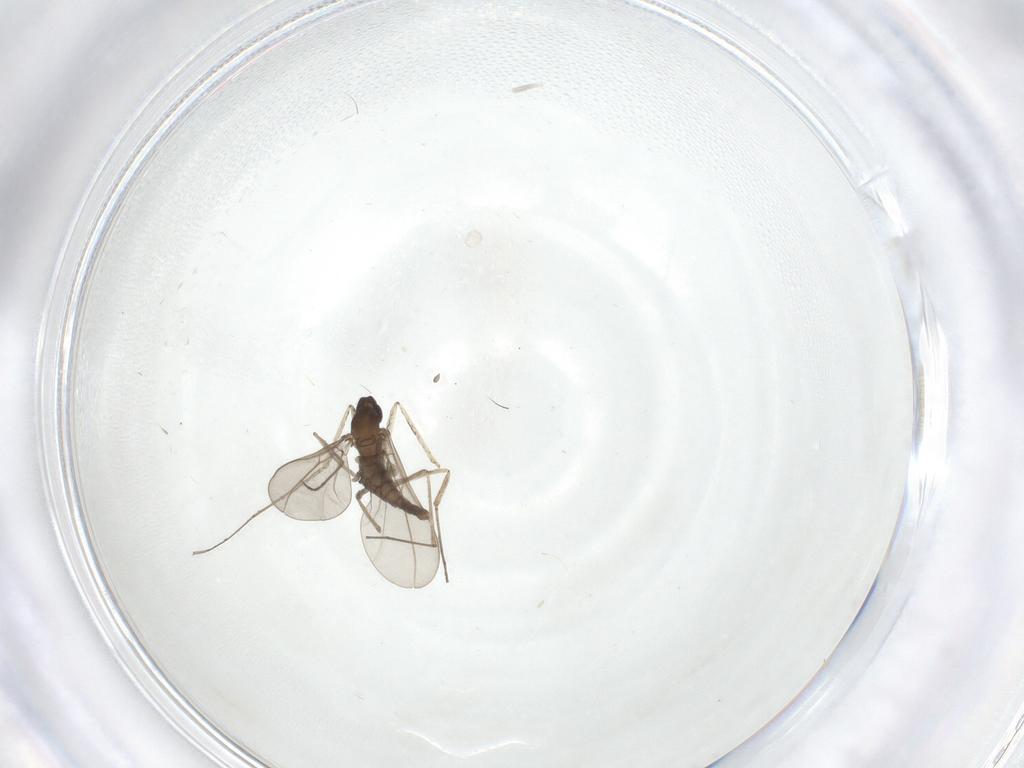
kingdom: Animalia
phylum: Arthropoda
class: Insecta
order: Diptera
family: Cecidomyiidae
